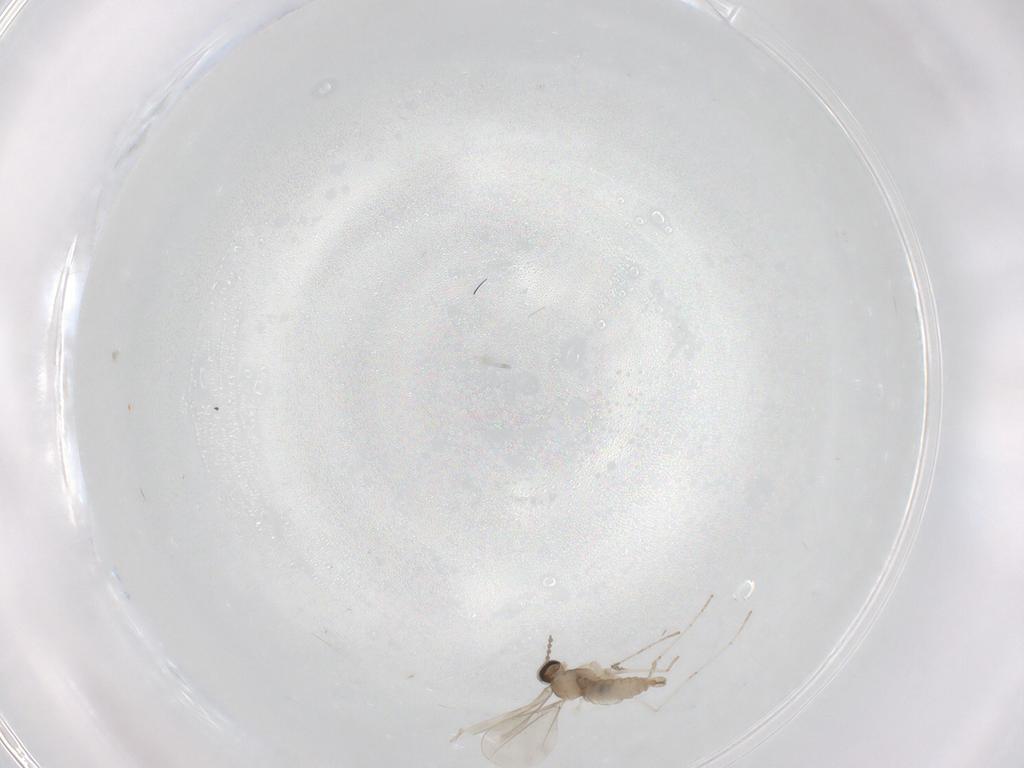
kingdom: Animalia
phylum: Arthropoda
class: Insecta
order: Diptera
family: Cecidomyiidae
